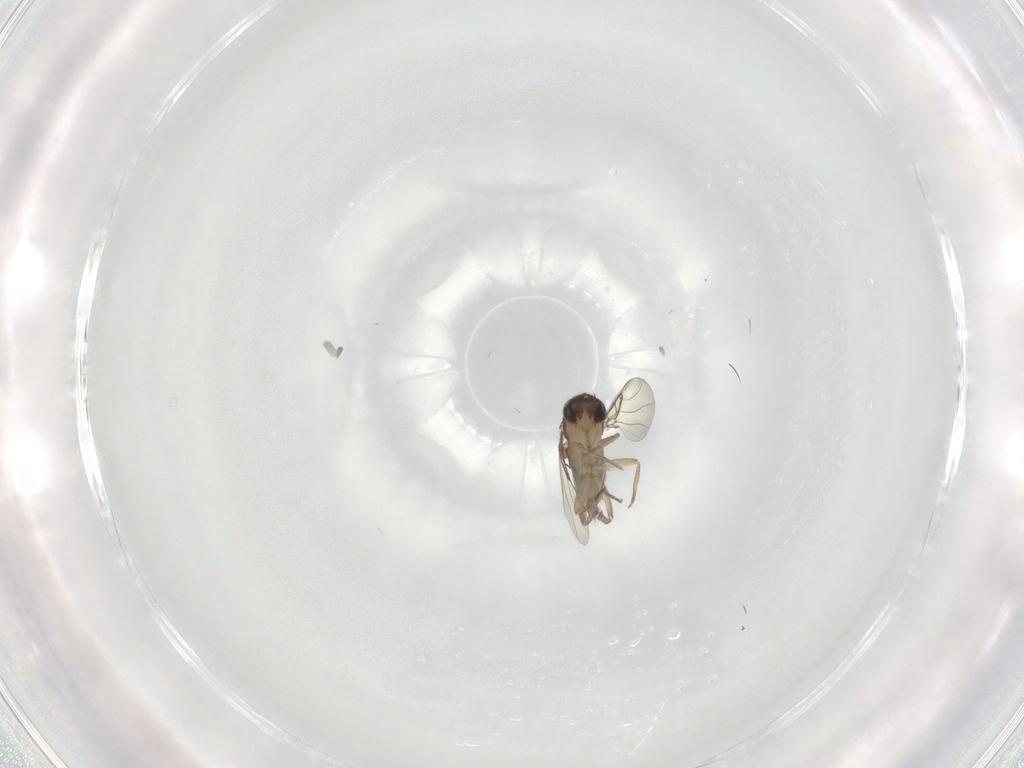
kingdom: Animalia
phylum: Arthropoda
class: Insecta
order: Diptera
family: Phoridae
